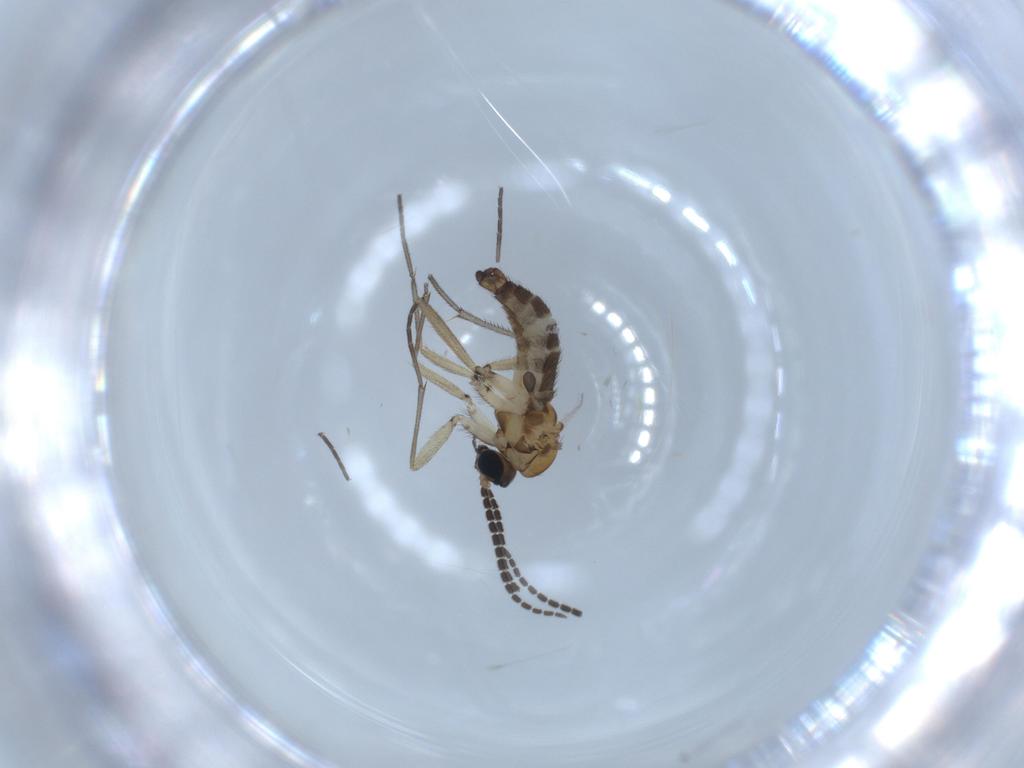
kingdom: Animalia
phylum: Arthropoda
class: Insecta
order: Diptera
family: Sciaridae
